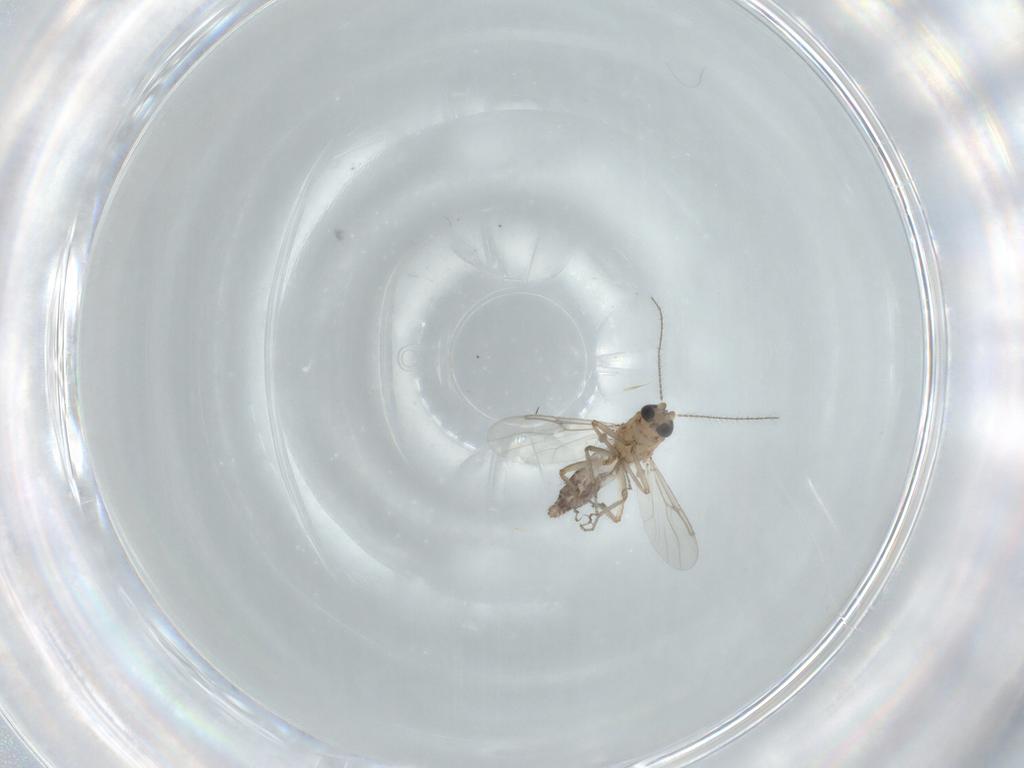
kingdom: Animalia
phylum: Arthropoda
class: Insecta
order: Diptera
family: Ceratopogonidae
